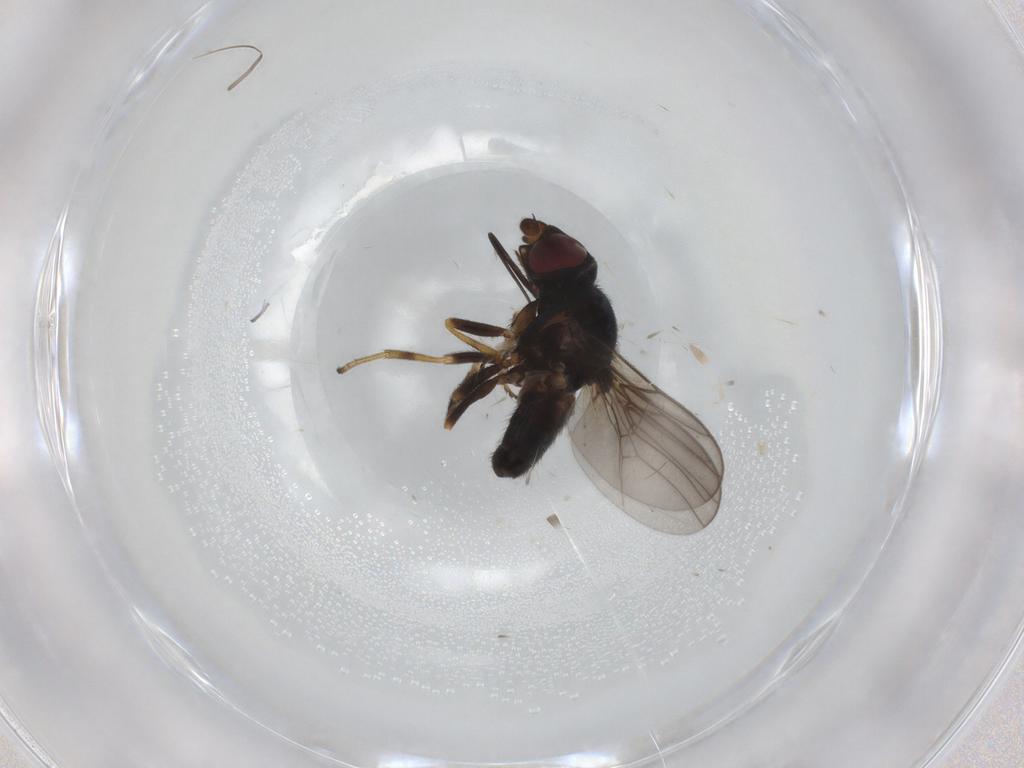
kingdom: Animalia
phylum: Arthropoda
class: Insecta
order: Diptera
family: Chloropidae
